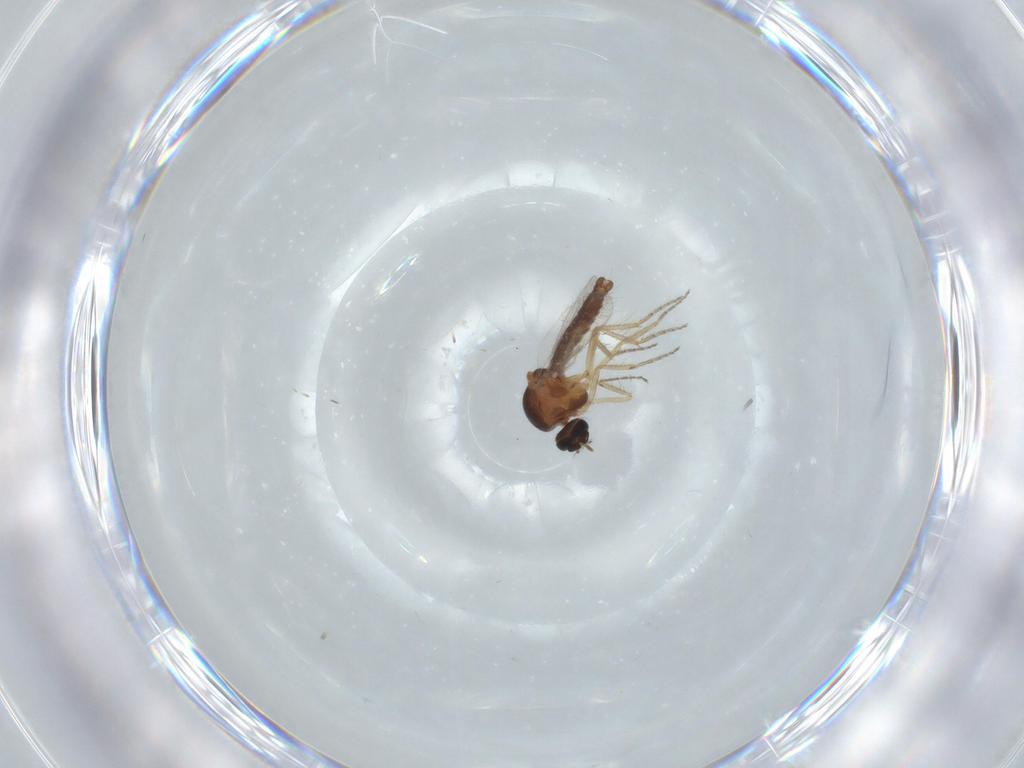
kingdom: Animalia
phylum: Arthropoda
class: Insecta
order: Diptera
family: Ceratopogonidae
